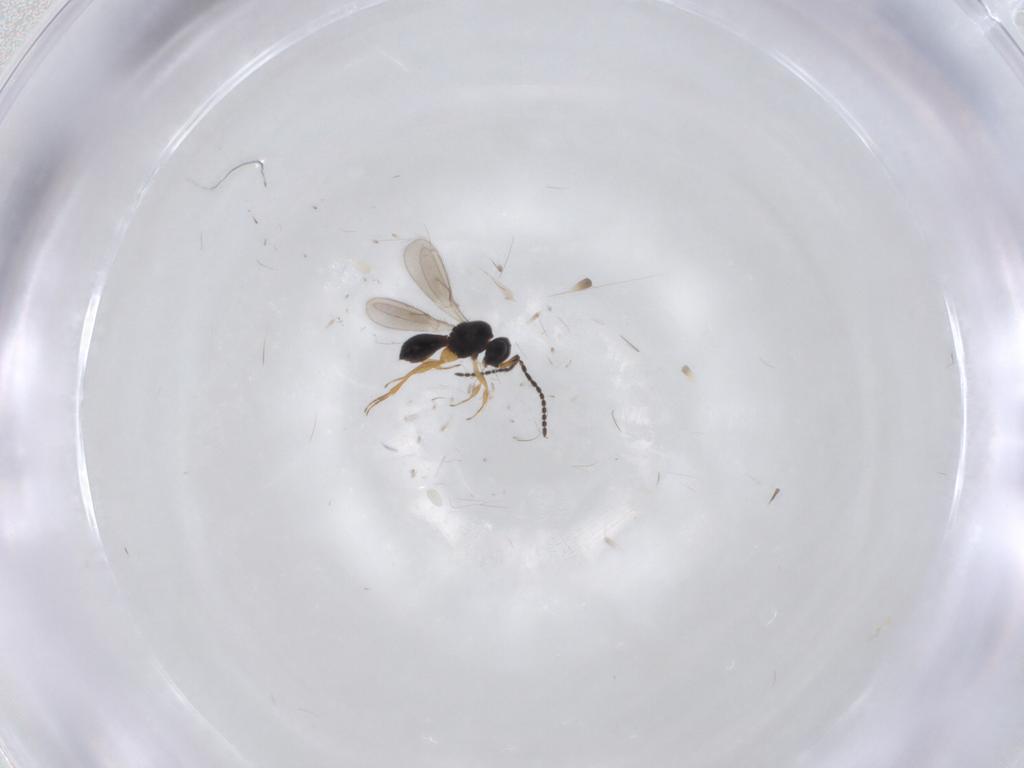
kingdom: Animalia
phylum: Arthropoda
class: Insecta
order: Hymenoptera
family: Scelionidae
